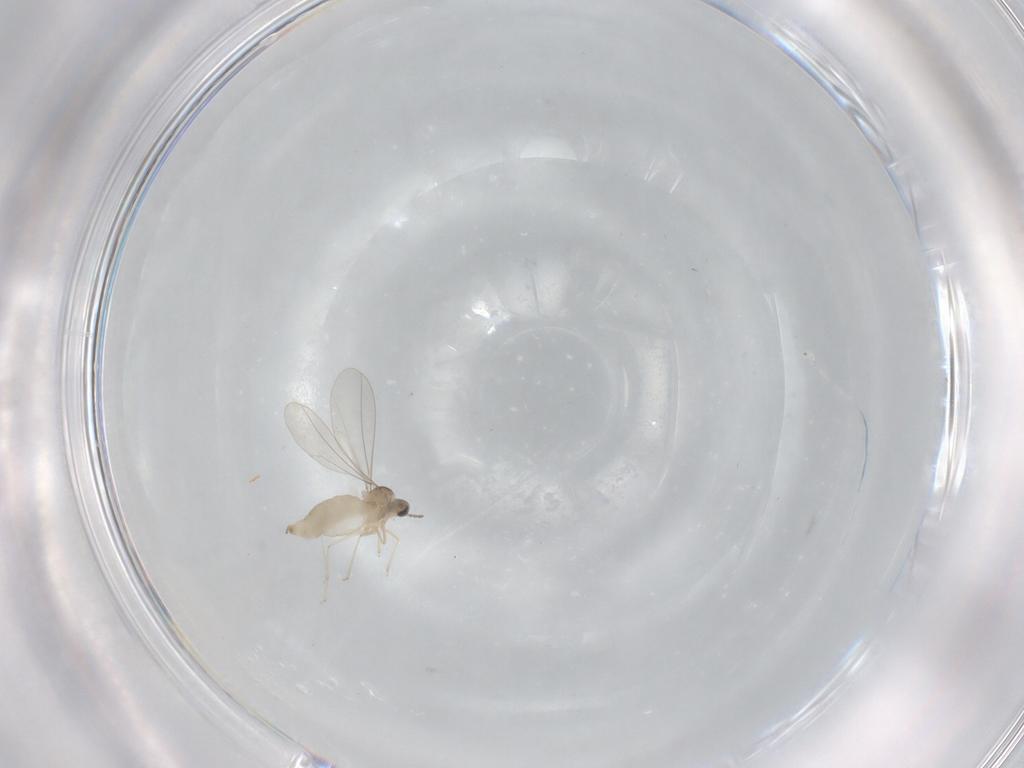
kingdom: Animalia
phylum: Arthropoda
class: Insecta
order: Diptera
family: Cecidomyiidae
